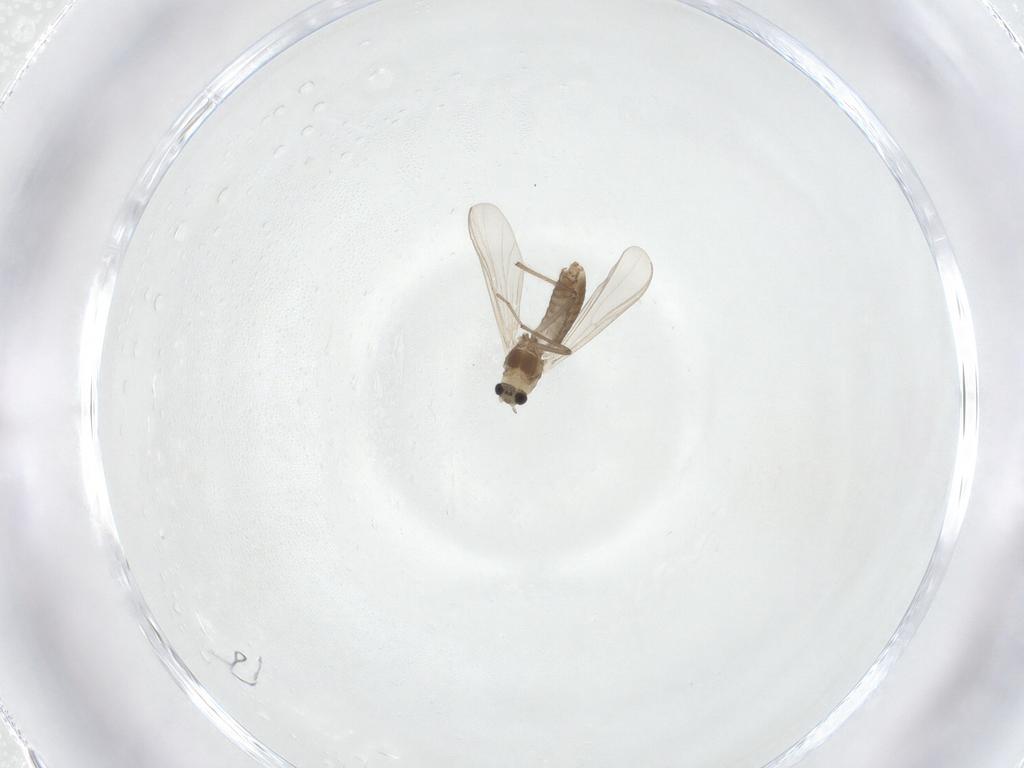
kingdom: Animalia
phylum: Arthropoda
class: Insecta
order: Diptera
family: Chironomidae
